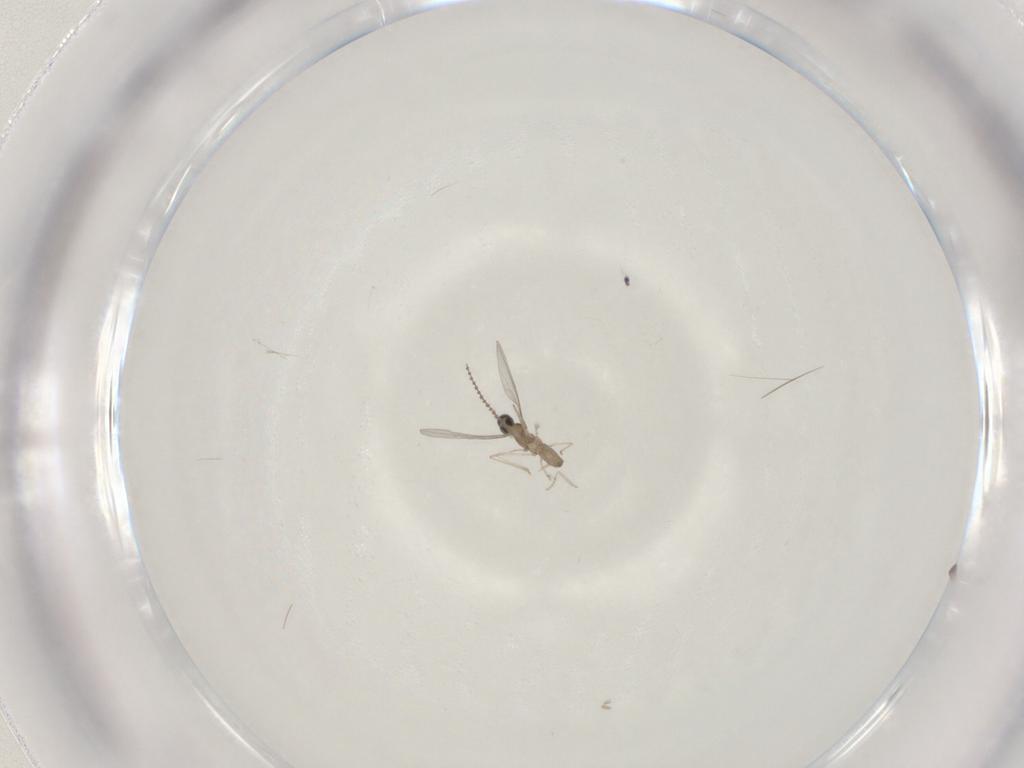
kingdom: Animalia
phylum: Arthropoda
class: Insecta
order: Diptera
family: Cecidomyiidae
